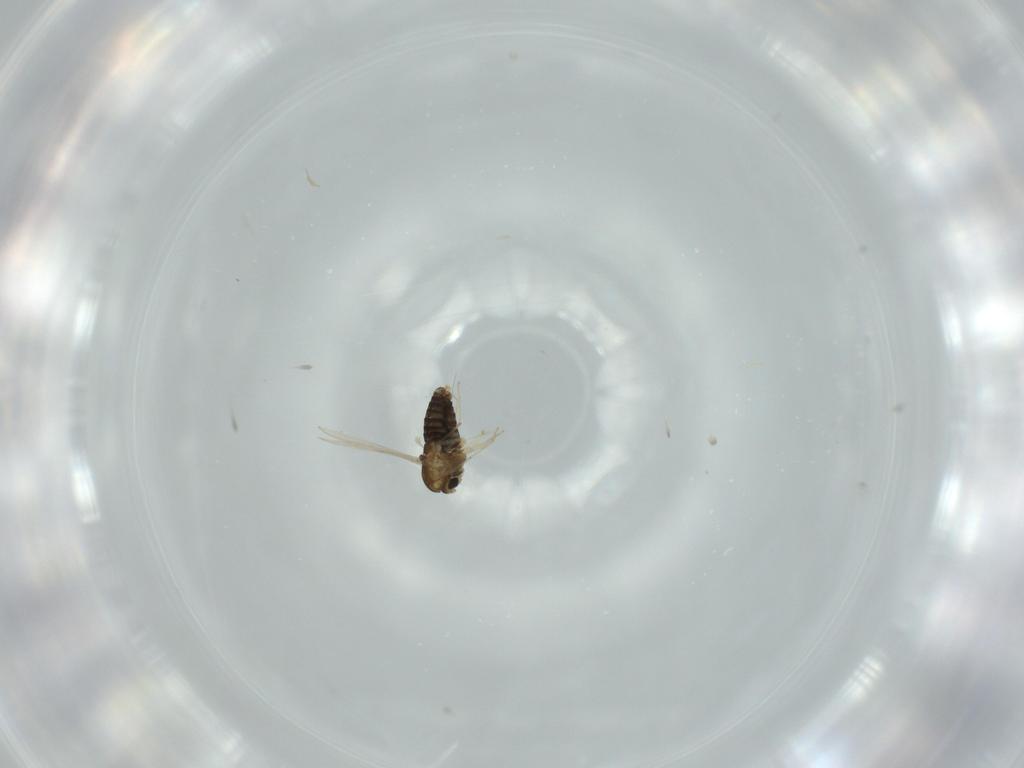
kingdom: Animalia
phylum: Arthropoda
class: Insecta
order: Diptera
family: Chironomidae
